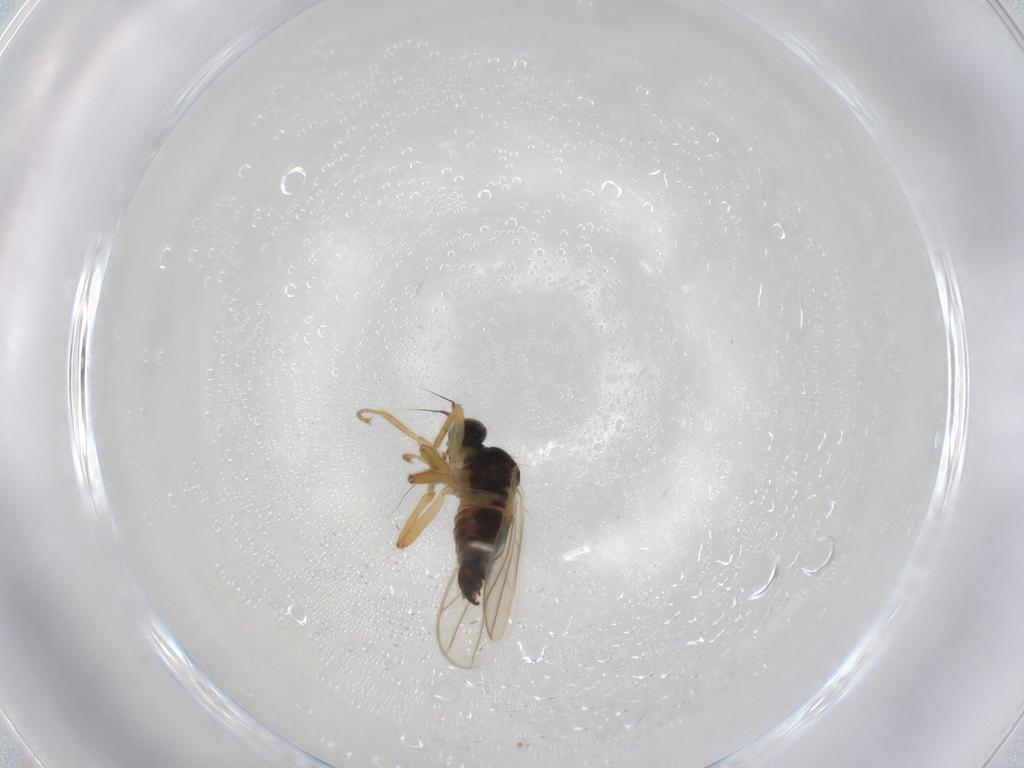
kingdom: Animalia
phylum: Arthropoda
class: Insecta
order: Diptera
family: Hybotidae
